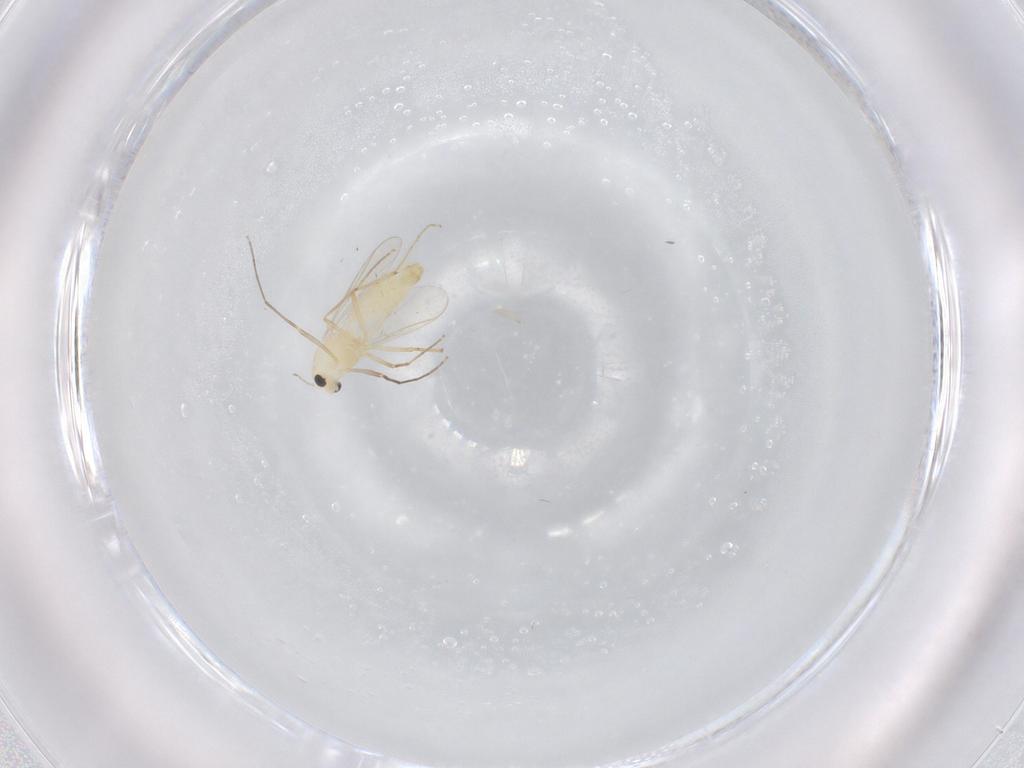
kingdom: Animalia
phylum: Arthropoda
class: Insecta
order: Diptera
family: Chironomidae
